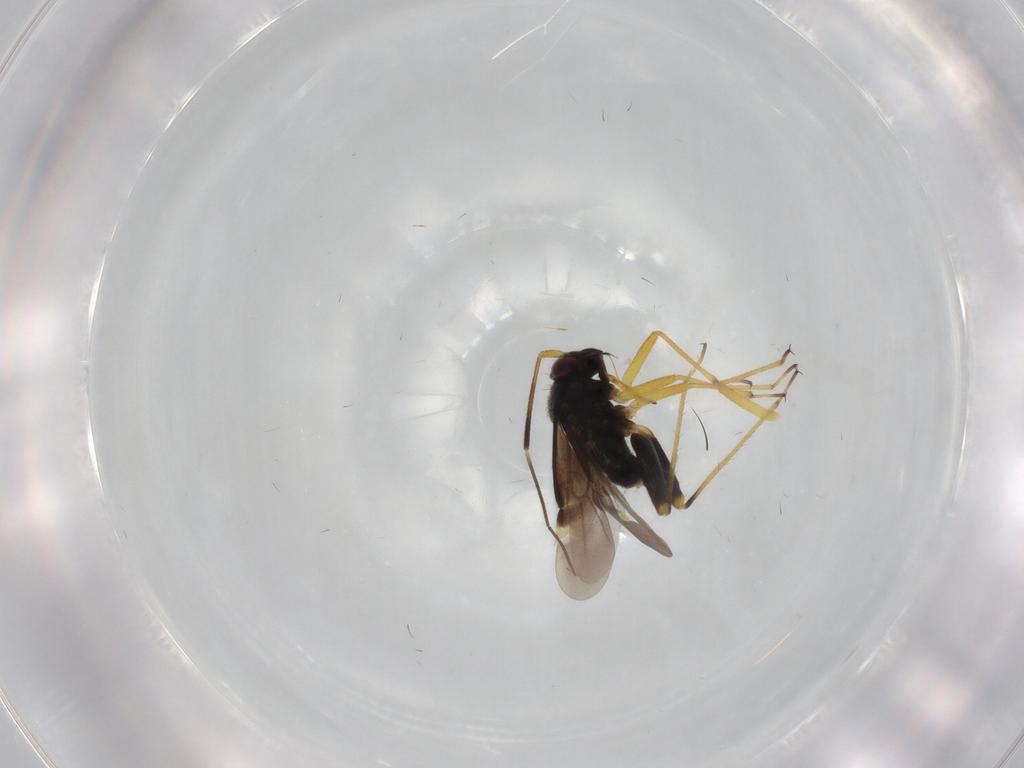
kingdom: Animalia
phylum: Arthropoda
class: Insecta
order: Hemiptera
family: Miridae
